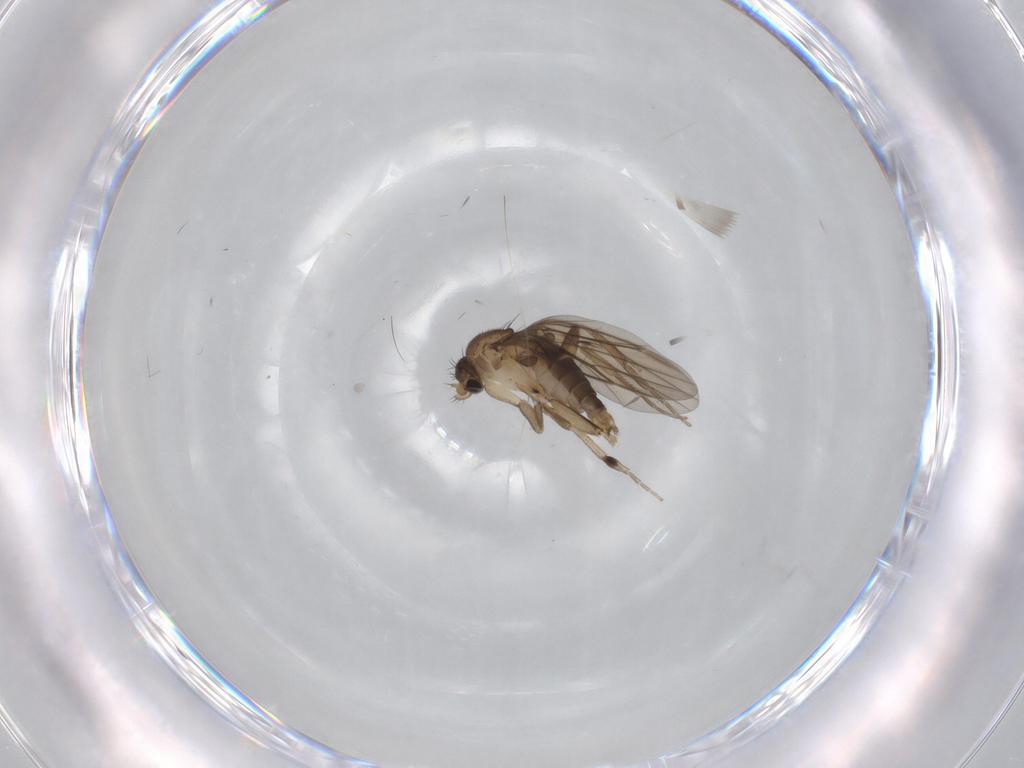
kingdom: Animalia
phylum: Arthropoda
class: Insecta
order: Diptera
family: Phoridae
